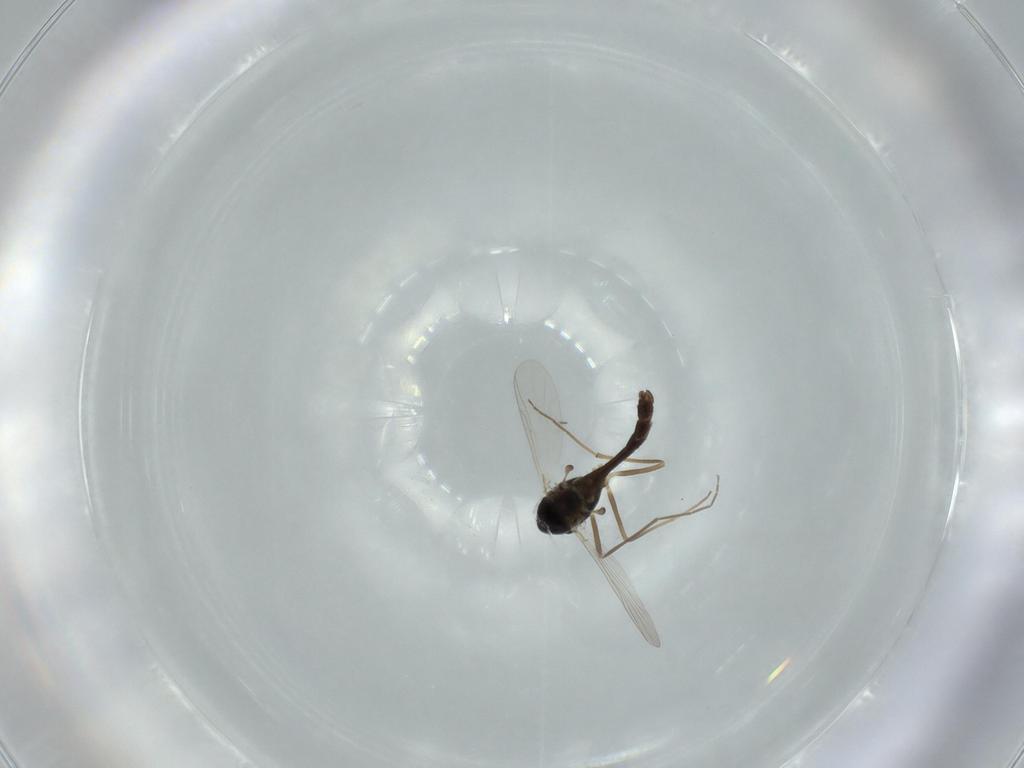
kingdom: Animalia
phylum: Arthropoda
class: Insecta
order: Diptera
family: Chironomidae
